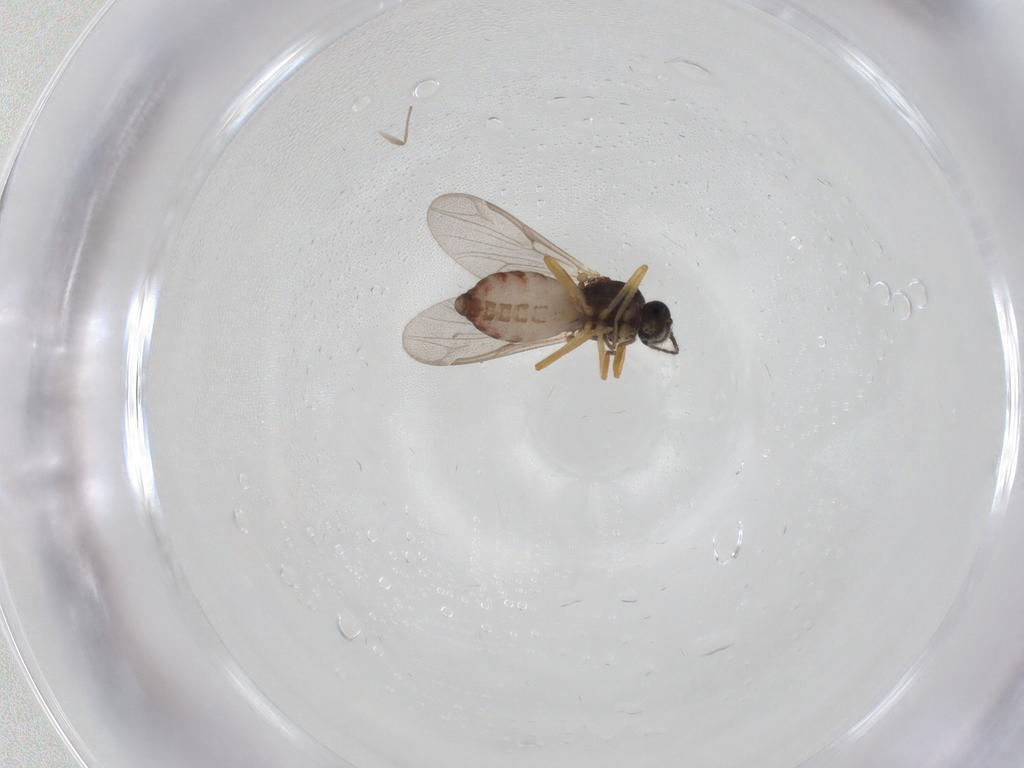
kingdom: Animalia
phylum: Arthropoda
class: Insecta
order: Diptera
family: Ceratopogonidae
